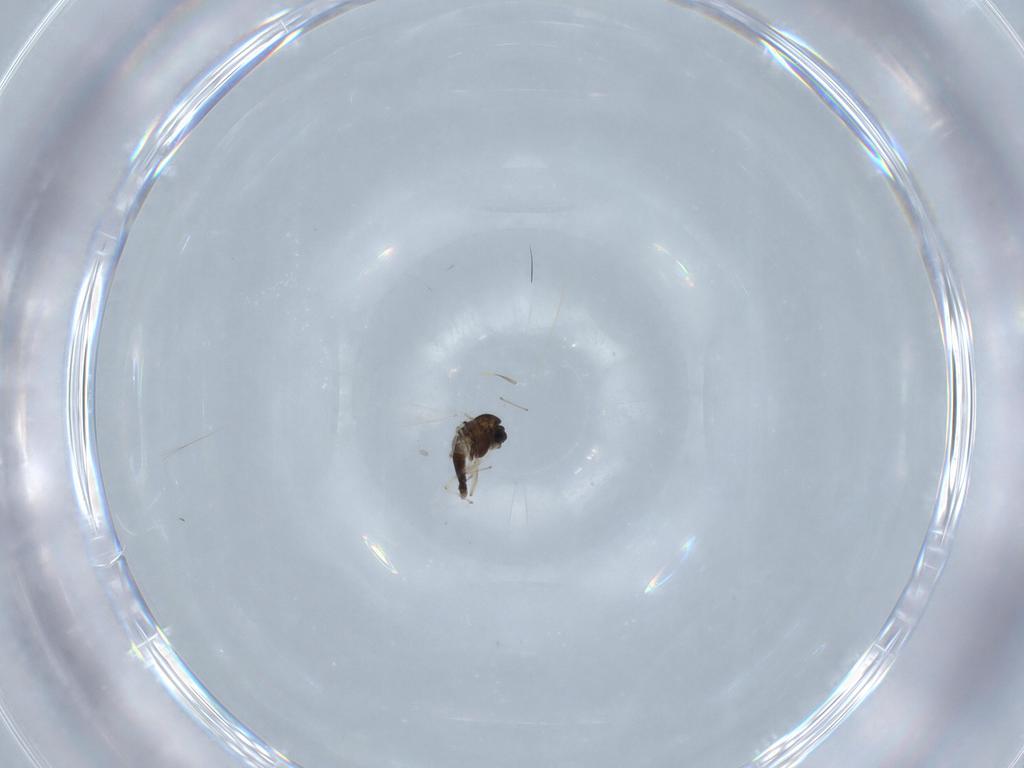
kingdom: Animalia
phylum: Arthropoda
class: Insecta
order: Diptera
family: Chironomidae
